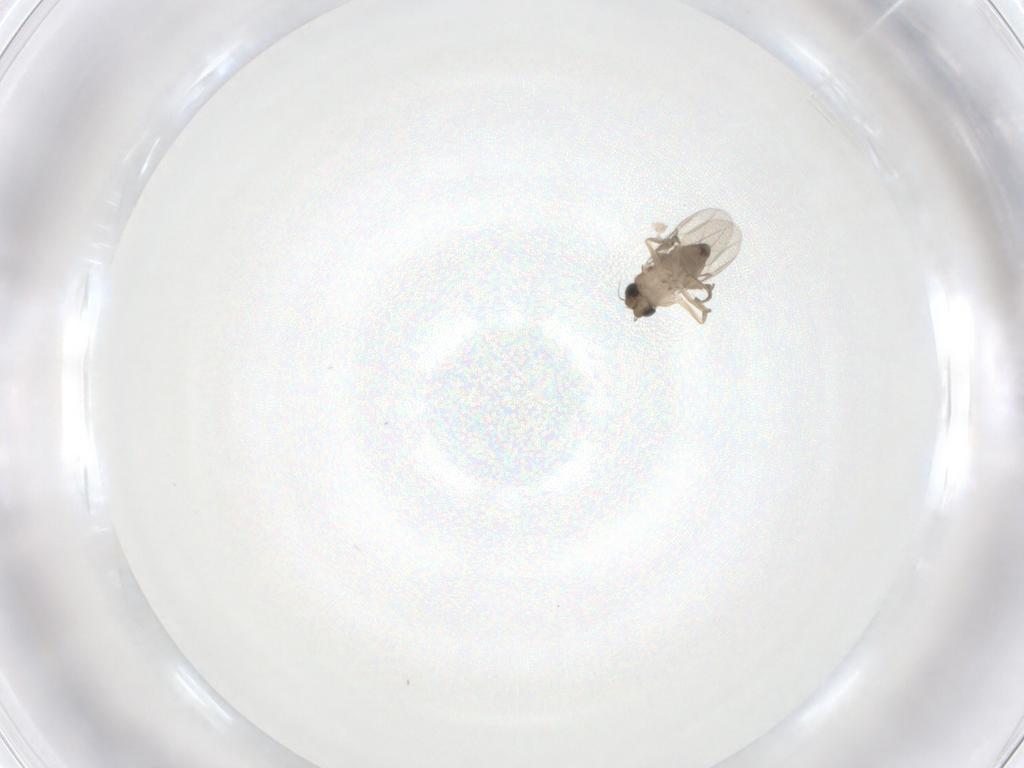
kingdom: Animalia
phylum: Arthropoda
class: Insecta
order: Diptera
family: Phoridae
